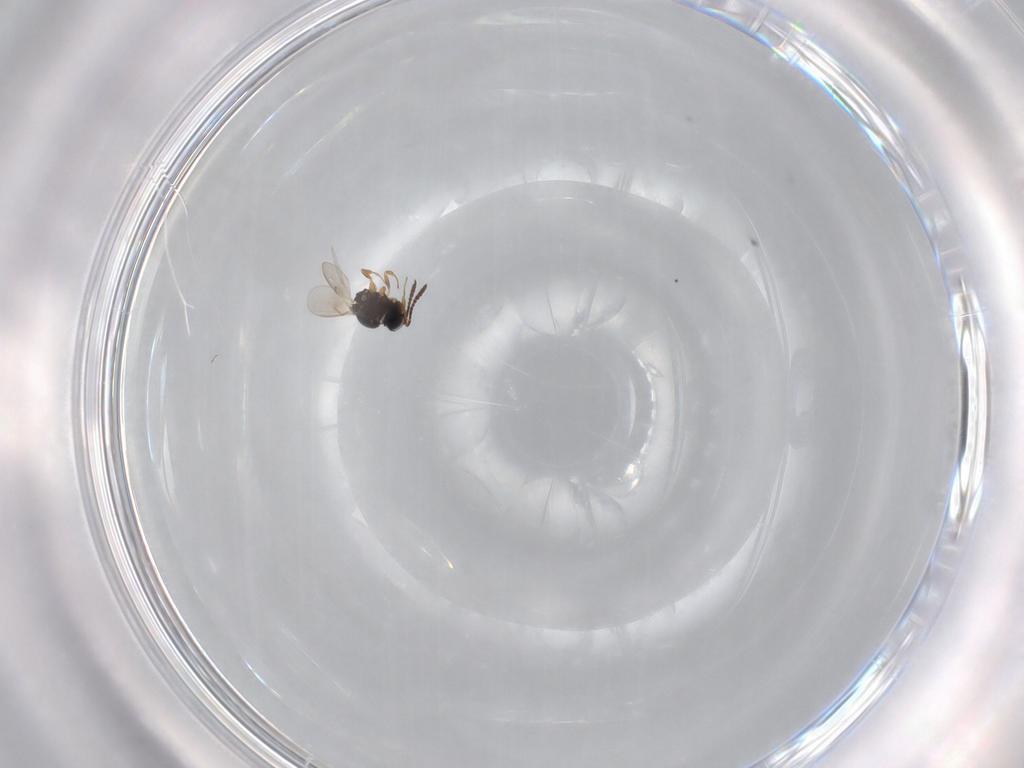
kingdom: Animalia
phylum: Arthropoda
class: Insecta
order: Hymenoptera
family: Scelionidae
